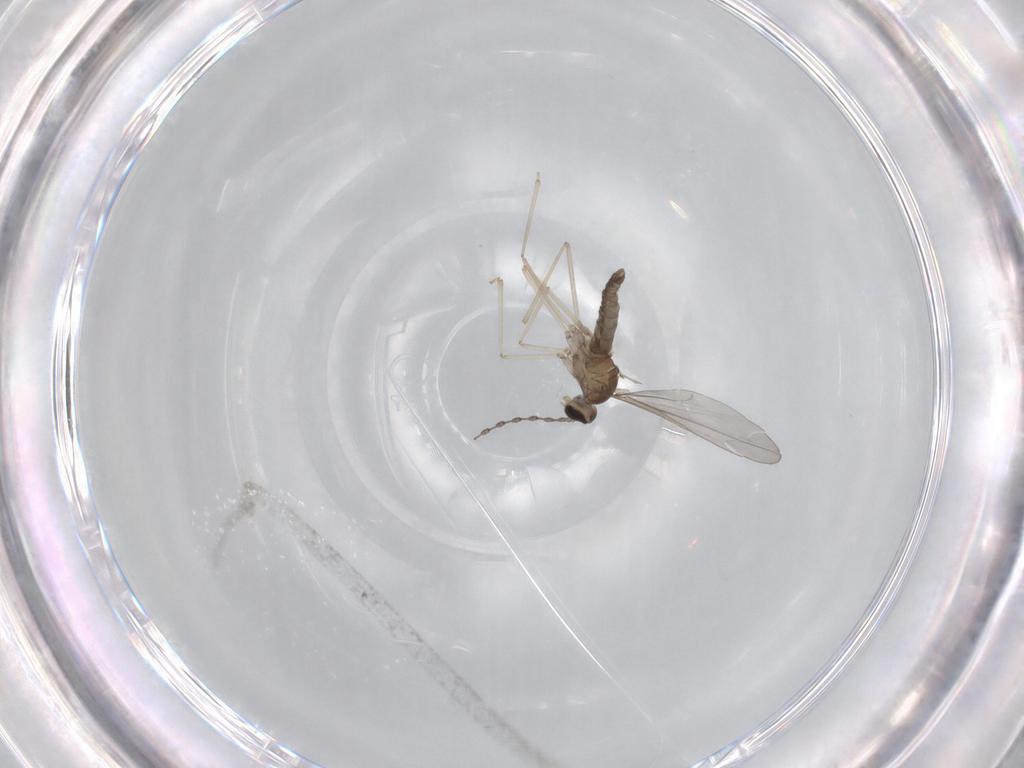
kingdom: Animalia
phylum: Arthropoda
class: Insecta
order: Diptera
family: Cecidomyiidae
